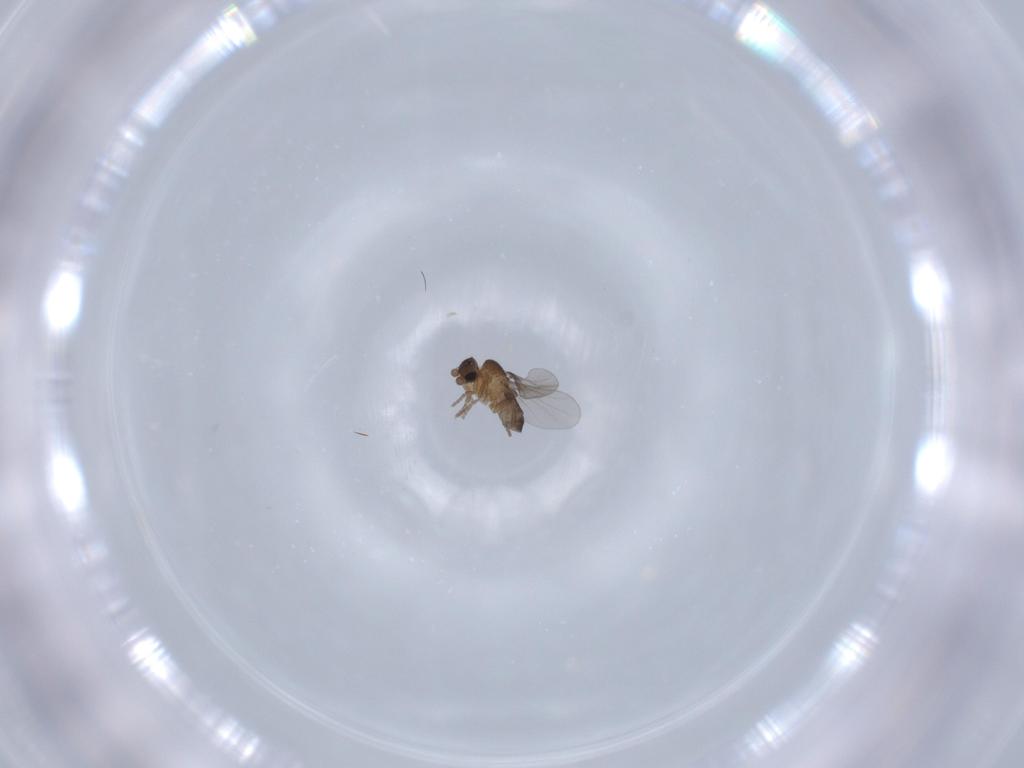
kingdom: Animalia
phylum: Arthropoda
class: Insecta
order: Diptera
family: Phoridae
